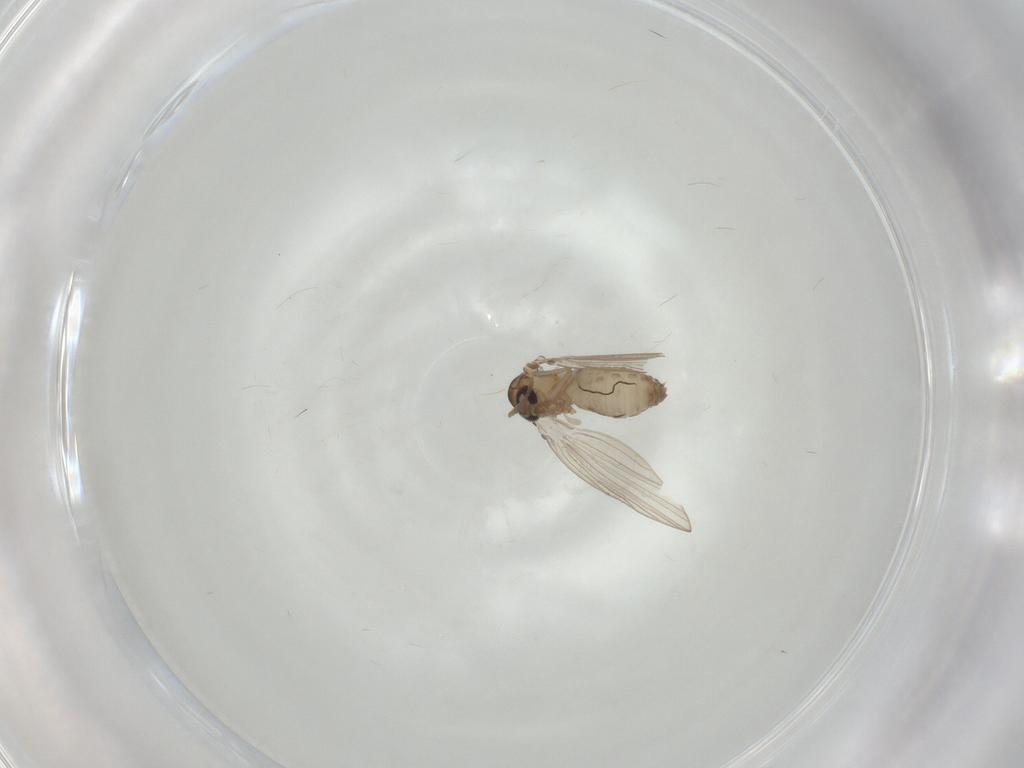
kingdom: Animalia
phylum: Arthropoda
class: Insecta
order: Diptera
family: Psychodidae
